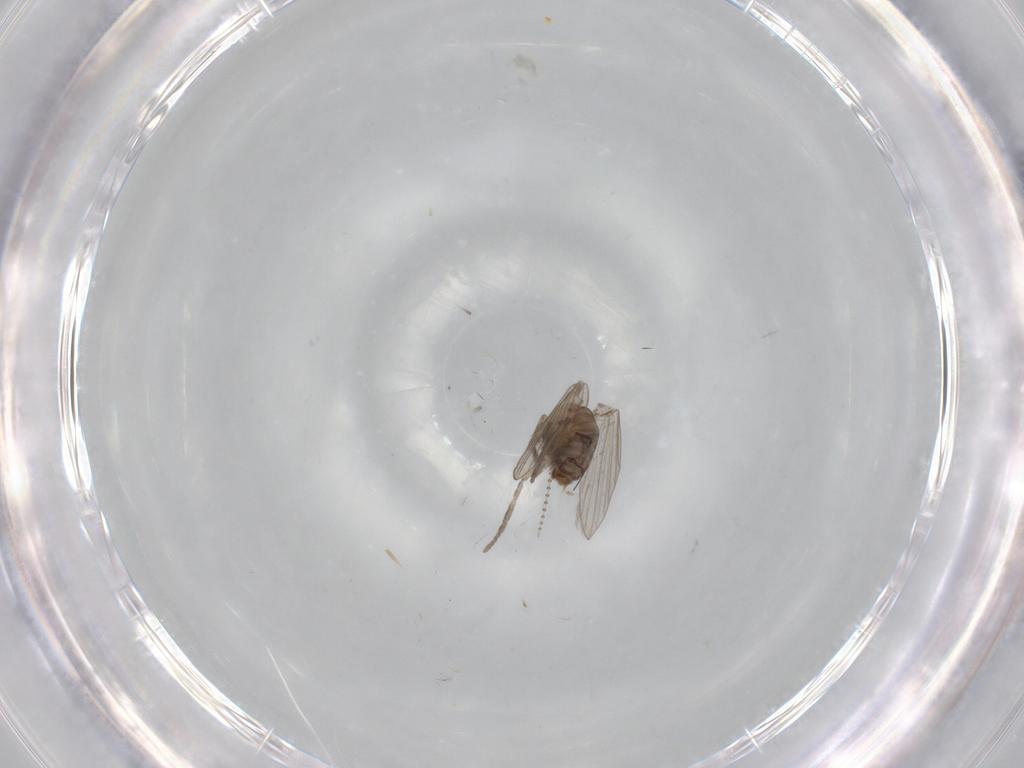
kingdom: Animalia
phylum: Arthropoda
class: Insecta
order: Diptera
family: Psychodidae
